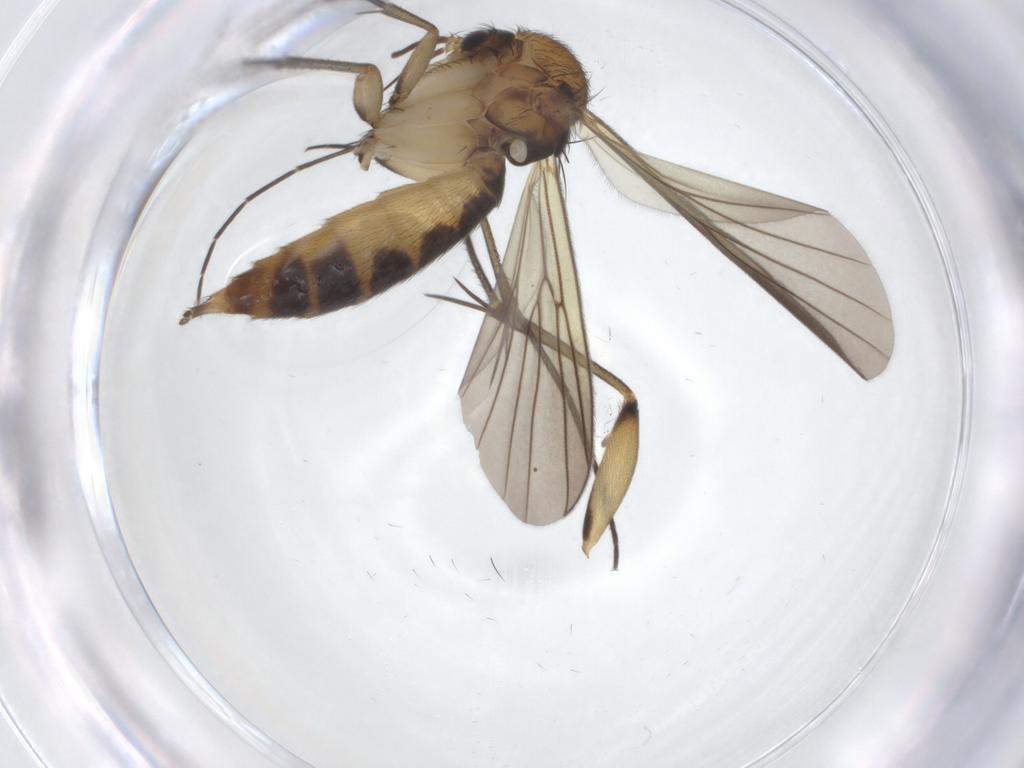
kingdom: Animalia
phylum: Arthropoda
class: Insecta
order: Diptera
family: Mycetophilidae
